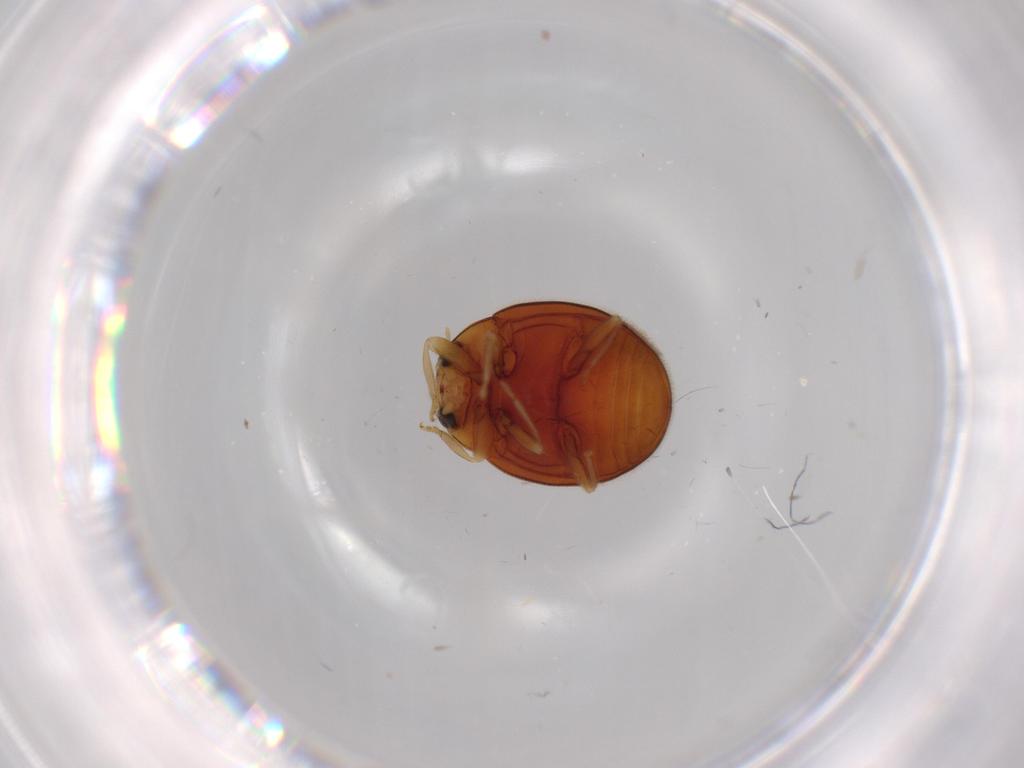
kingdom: Animalia
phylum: Arthropoda
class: Insecta
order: Coleoptera
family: Coccinellidae
